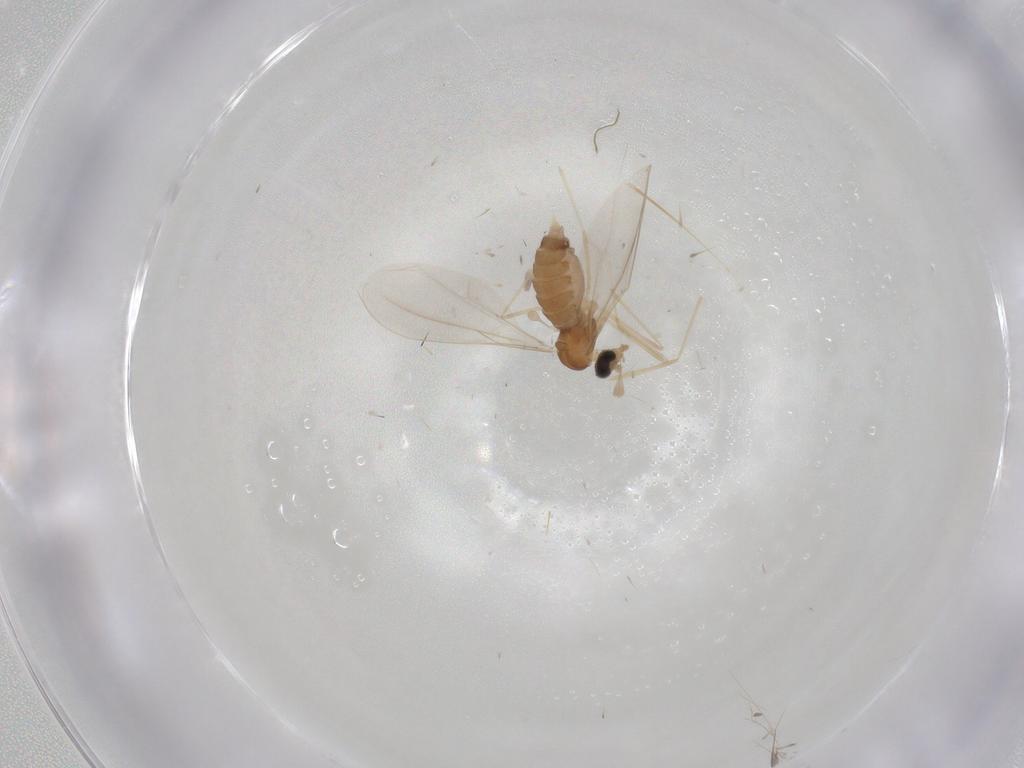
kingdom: Animalia
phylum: Arthropoda
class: Insecta
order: Diptera
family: Cecidomyiidae
